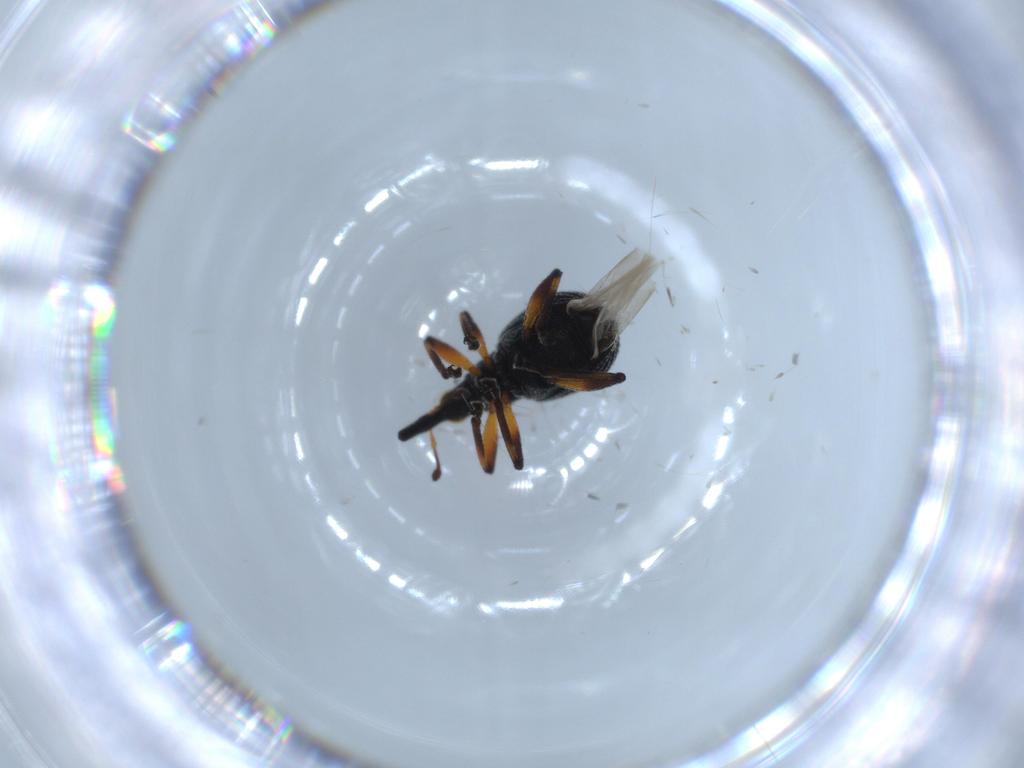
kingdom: Animalia
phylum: Arthropoda
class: Insecta
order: Coleoptera
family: Brentidae
